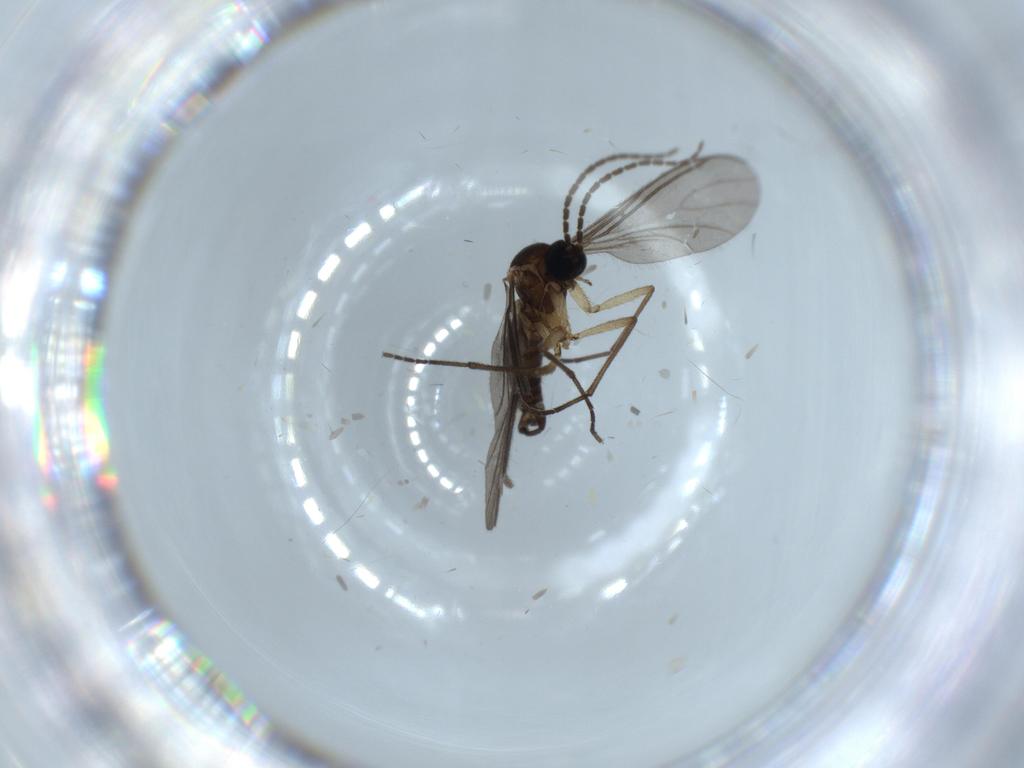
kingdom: Animalia
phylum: Arthropoda
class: Insecta
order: Diptera
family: Sciaridae
